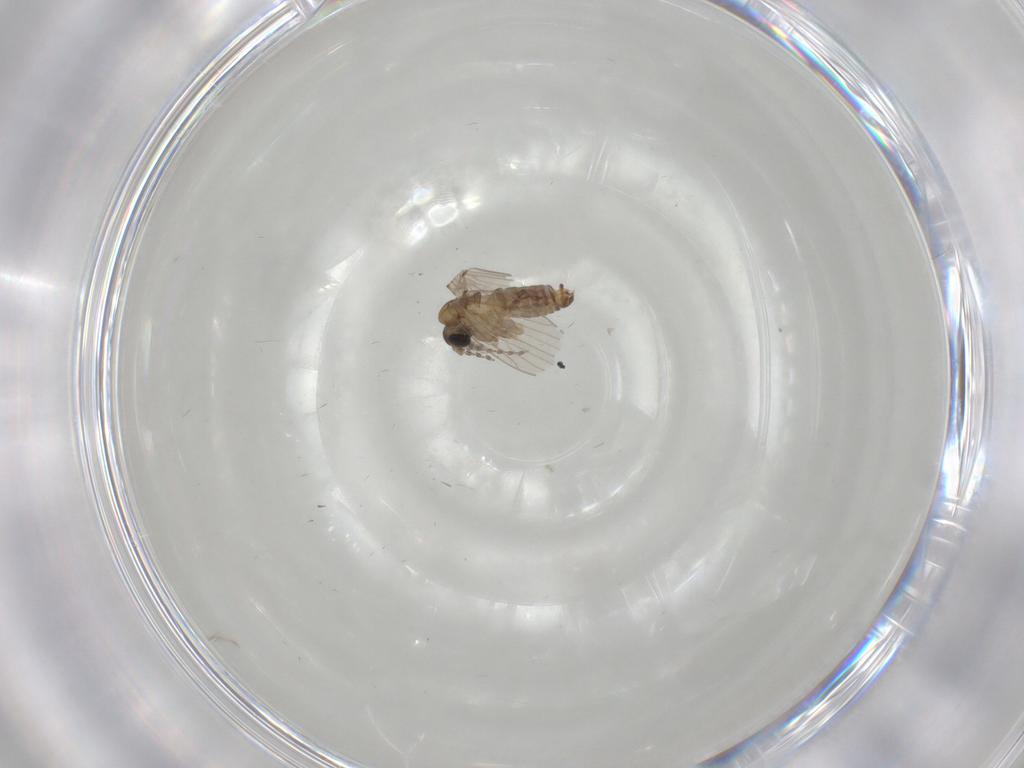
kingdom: Animalia
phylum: Arthropoda
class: Insecta
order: Diptera
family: Psychodidae
